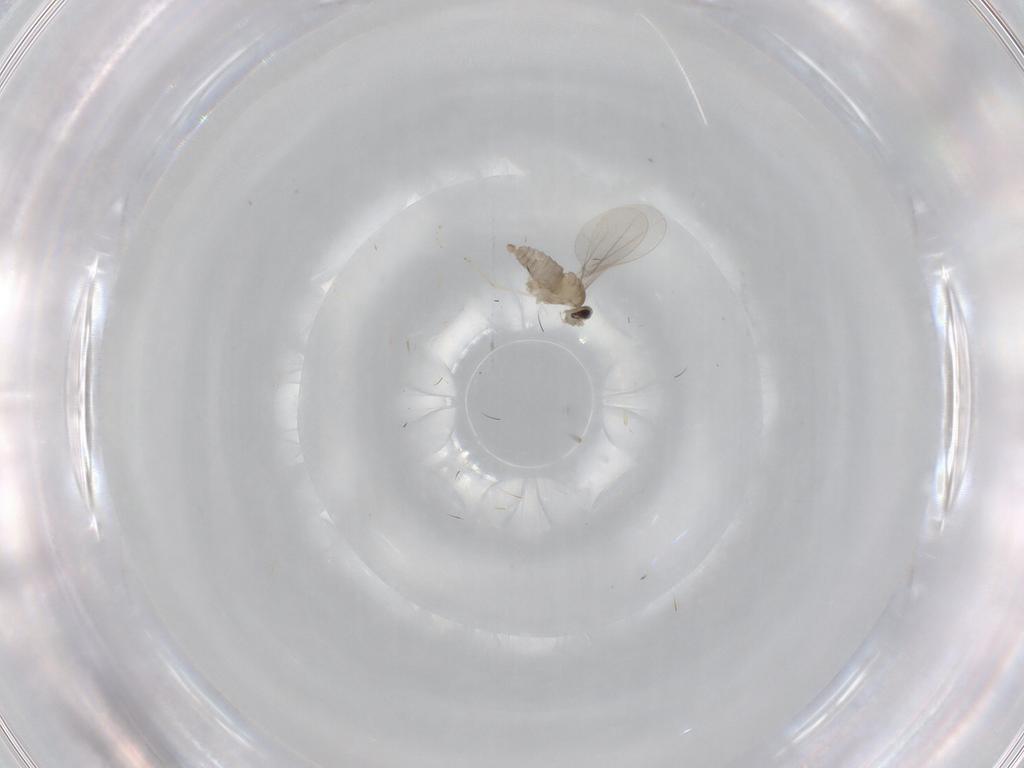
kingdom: Animalia
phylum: Arthropoda
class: Insecta
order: Diptera
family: Cecidomyiidae
